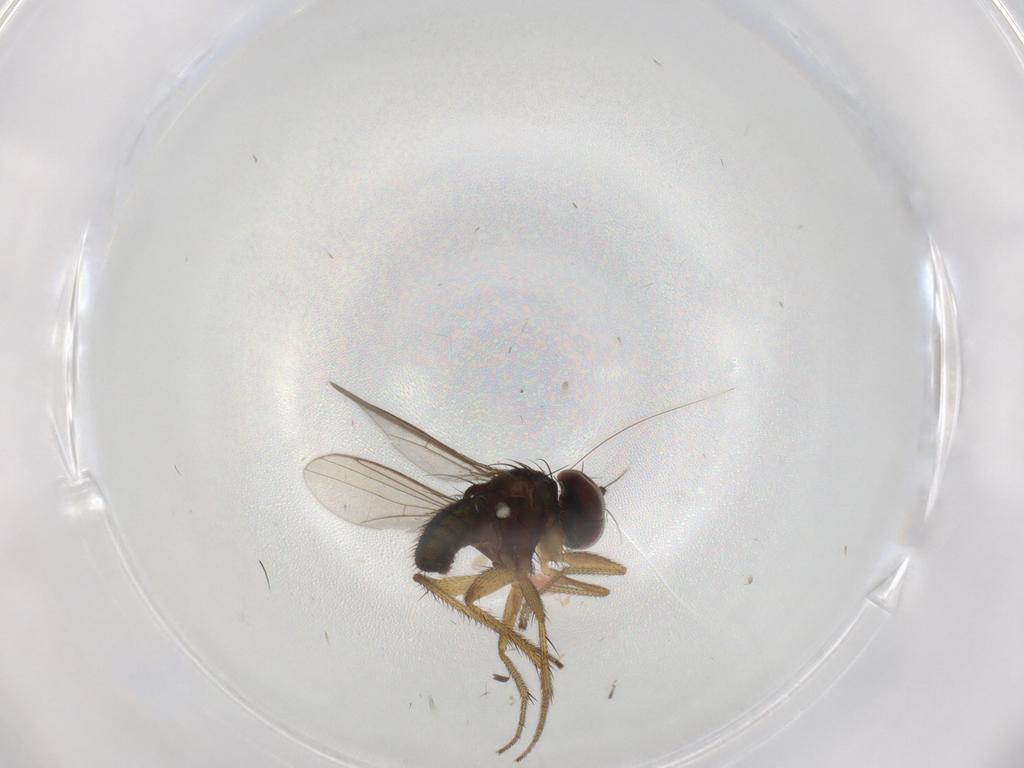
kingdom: Animalia
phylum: Arthropoda
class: Insecta
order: Diptera
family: Dolichopodidae
